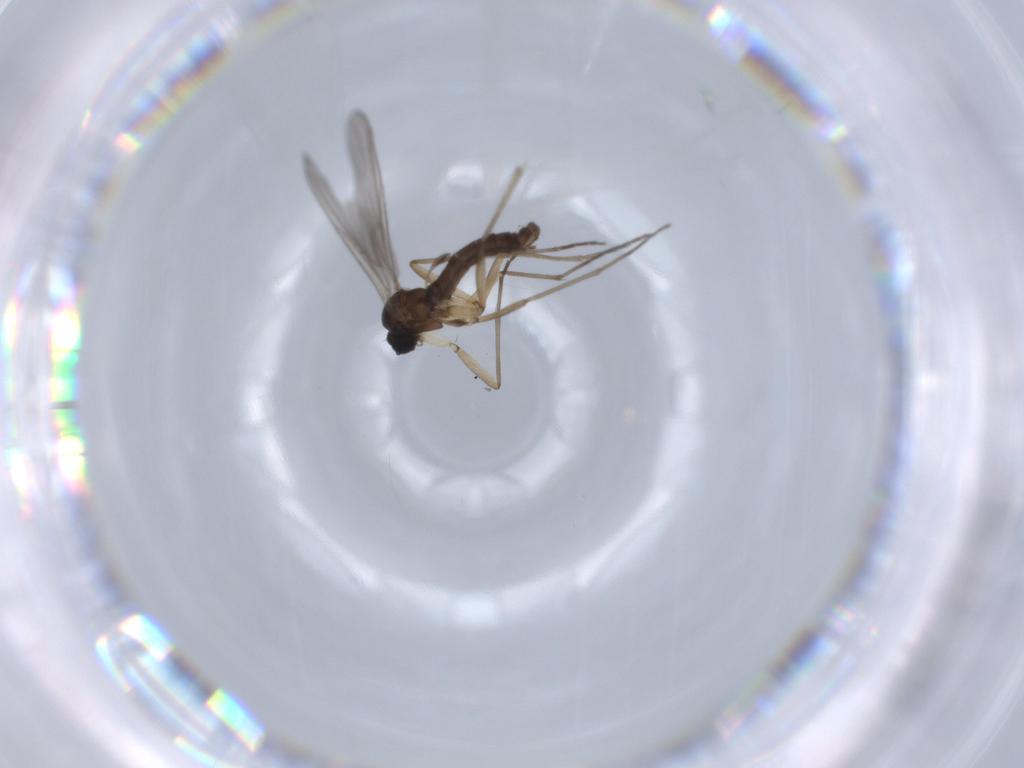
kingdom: Animalia
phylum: Arthropoda
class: Insecta
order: Diptera
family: Sciaridae
